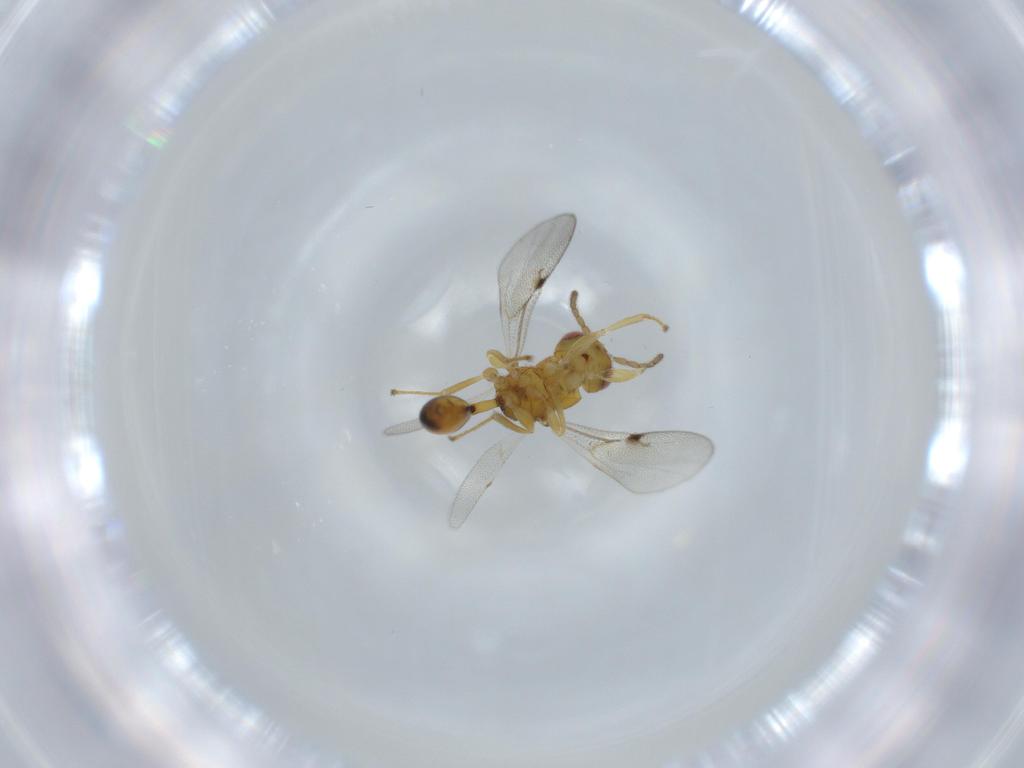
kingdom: Animalia
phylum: Arthropoda
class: Insecta
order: Hymenoptera
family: Eurytomidae
